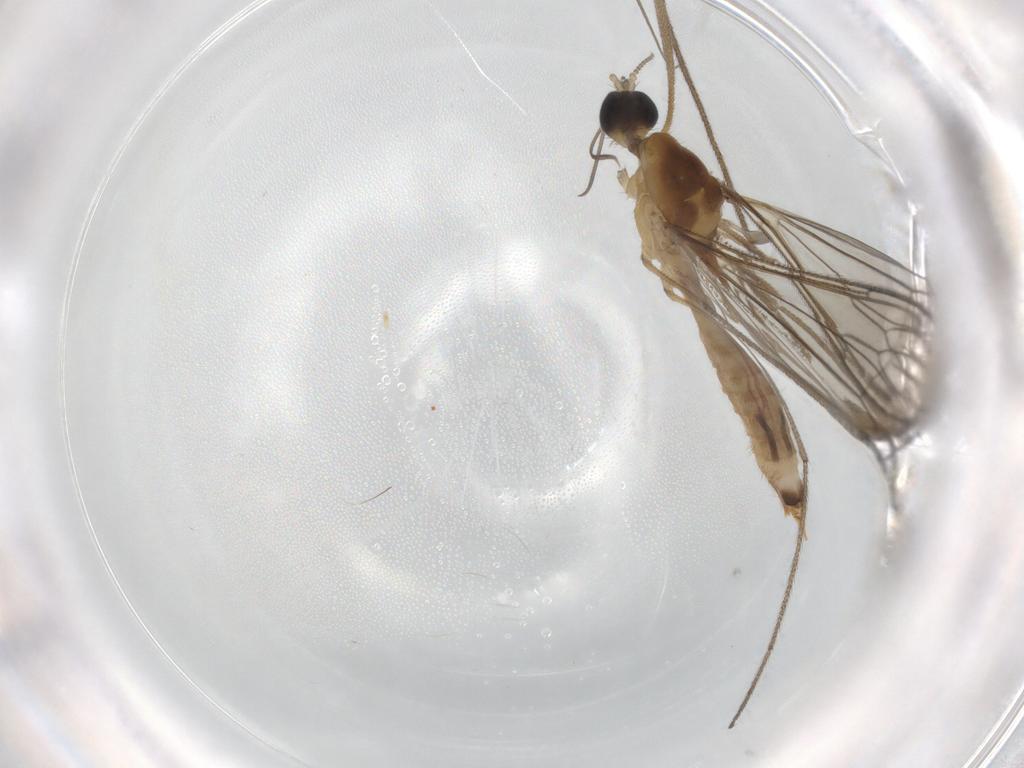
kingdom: Animalia
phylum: Arthropoda
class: Insecta
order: Diptera
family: Limoniidae
